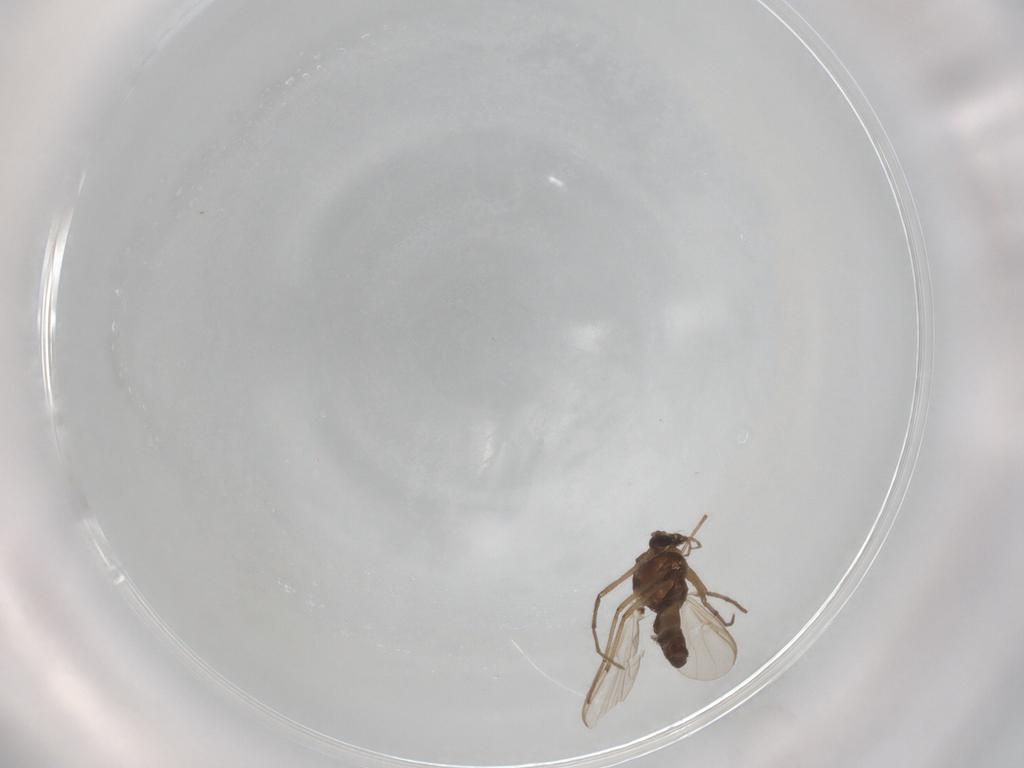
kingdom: Animalia
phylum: Arthropoda
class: Insecta
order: Diptera
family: Chironomidae
